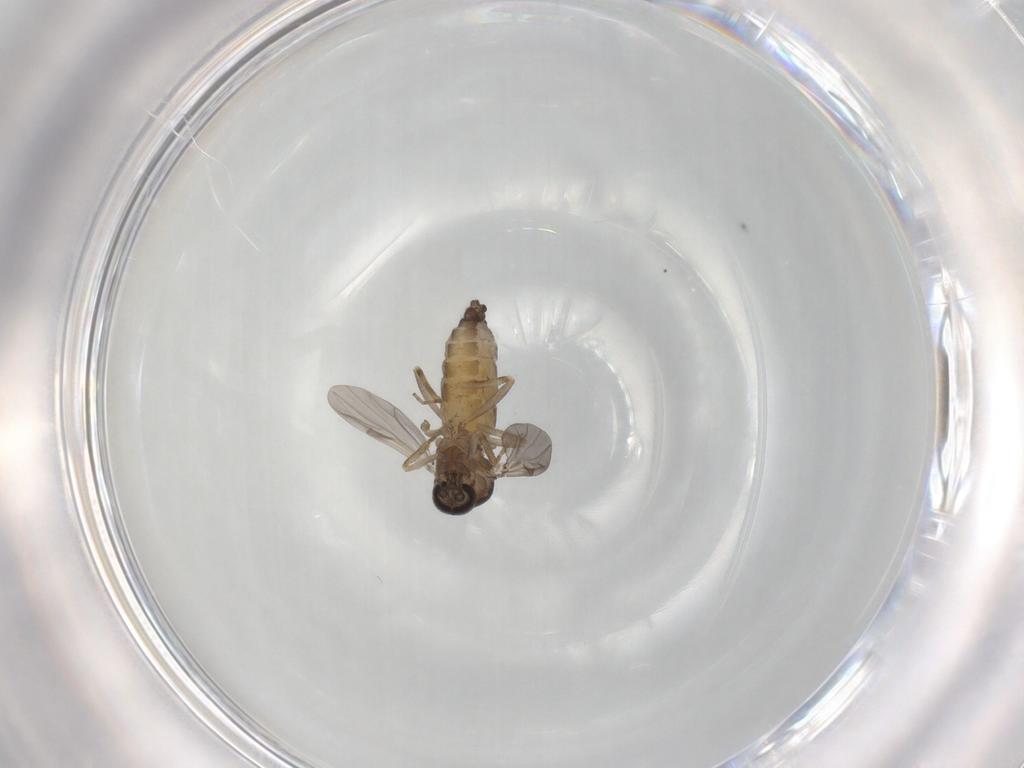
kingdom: Animalia
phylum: Arthropoda
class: Insecta
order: Diptera
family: Ceratopogonidae
